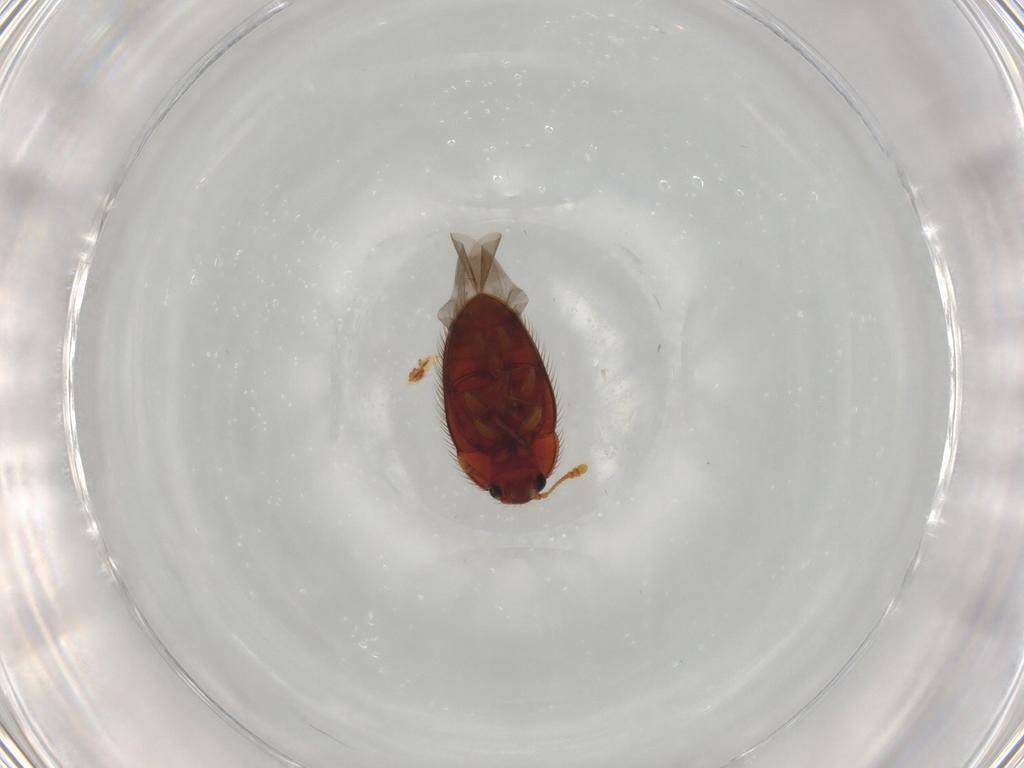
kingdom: Animalia
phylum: Arthropoda
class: Insecta
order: Coleoptera
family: Biphyllidae
